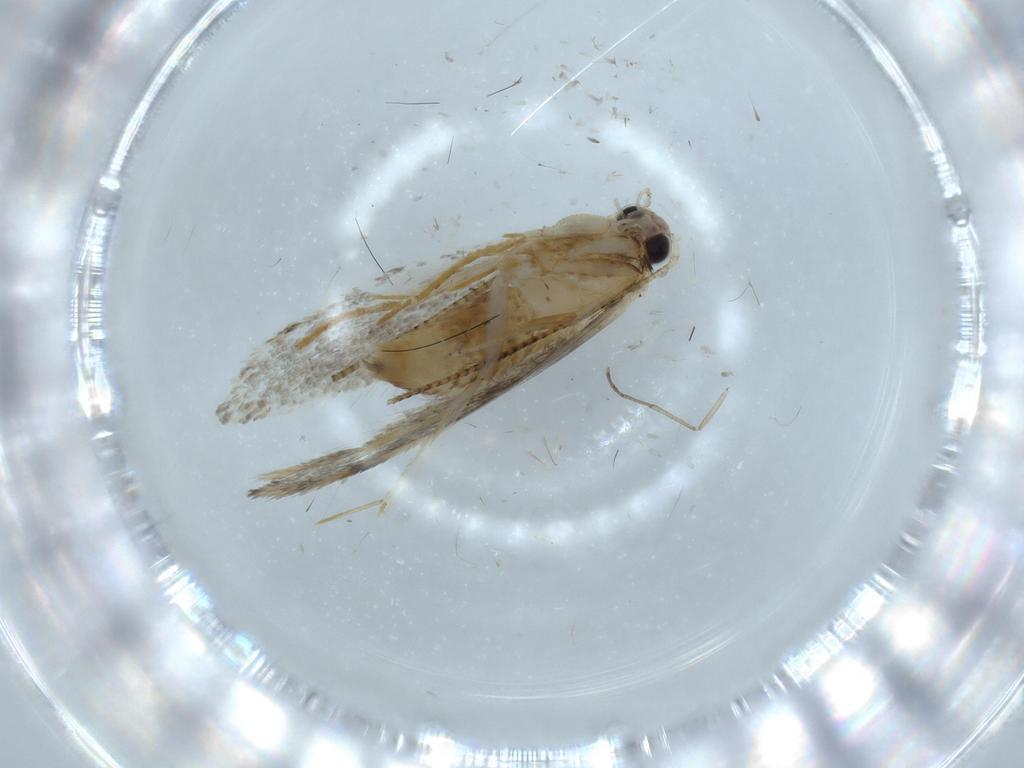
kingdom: Animalia
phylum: Arthropoda
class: Insecta
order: Lepidoptera
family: Tineidae
